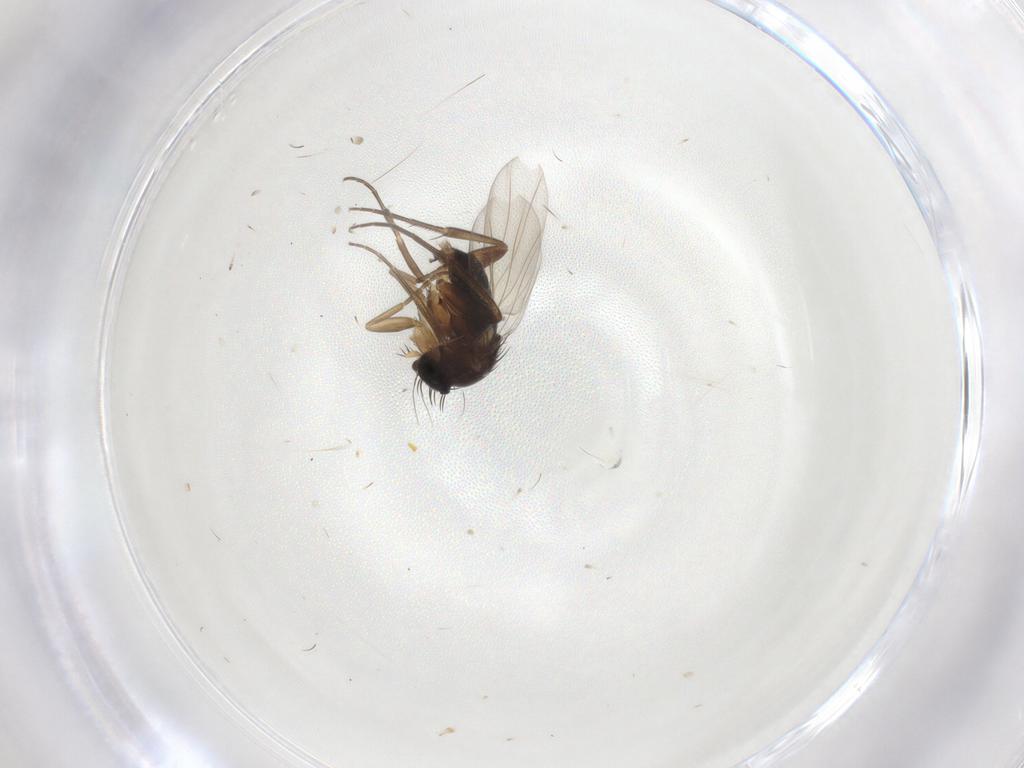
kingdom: Animalia
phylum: Arthropoda
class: Insecta
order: Diptera
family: Phoridae
